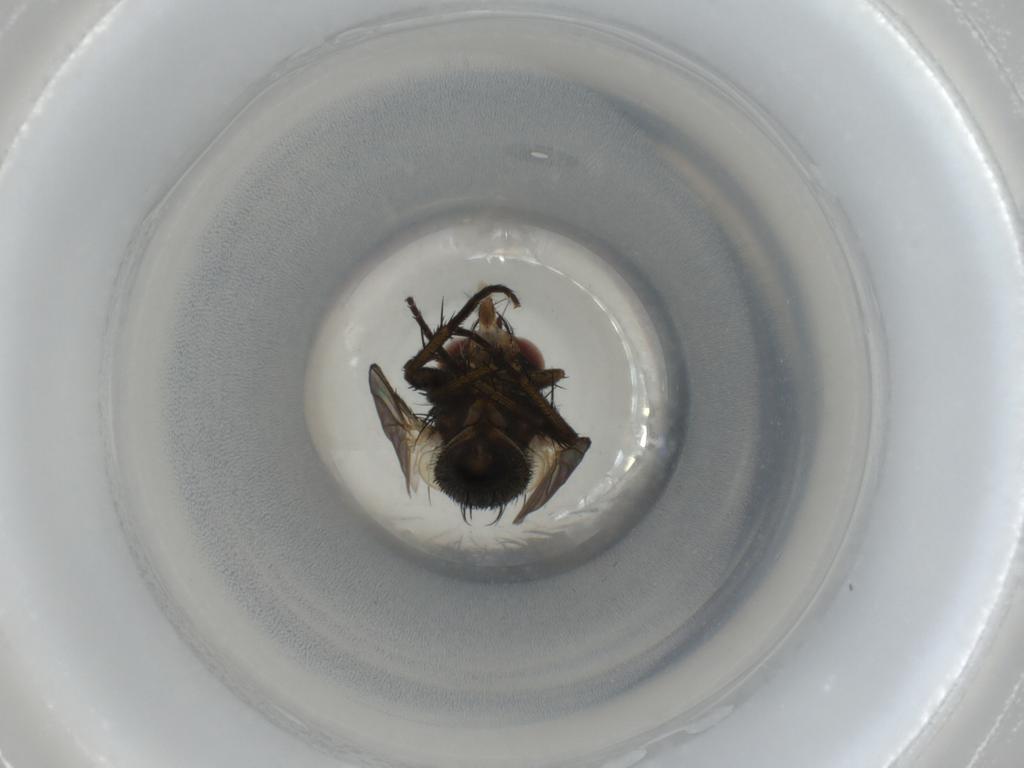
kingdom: Animalia
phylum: Arthropoda
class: Insecta
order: Diptera
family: Tachinidae
